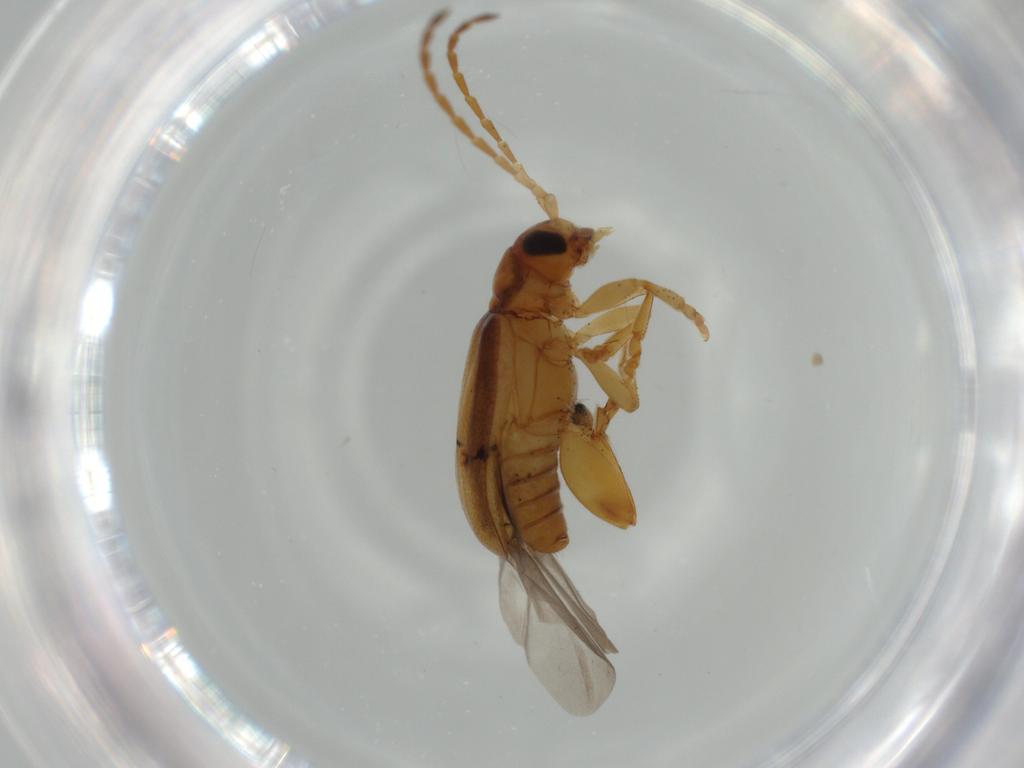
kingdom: Animalia
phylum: Arthropoda
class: Insecta
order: Coleoptera
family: Chrysomelidae
